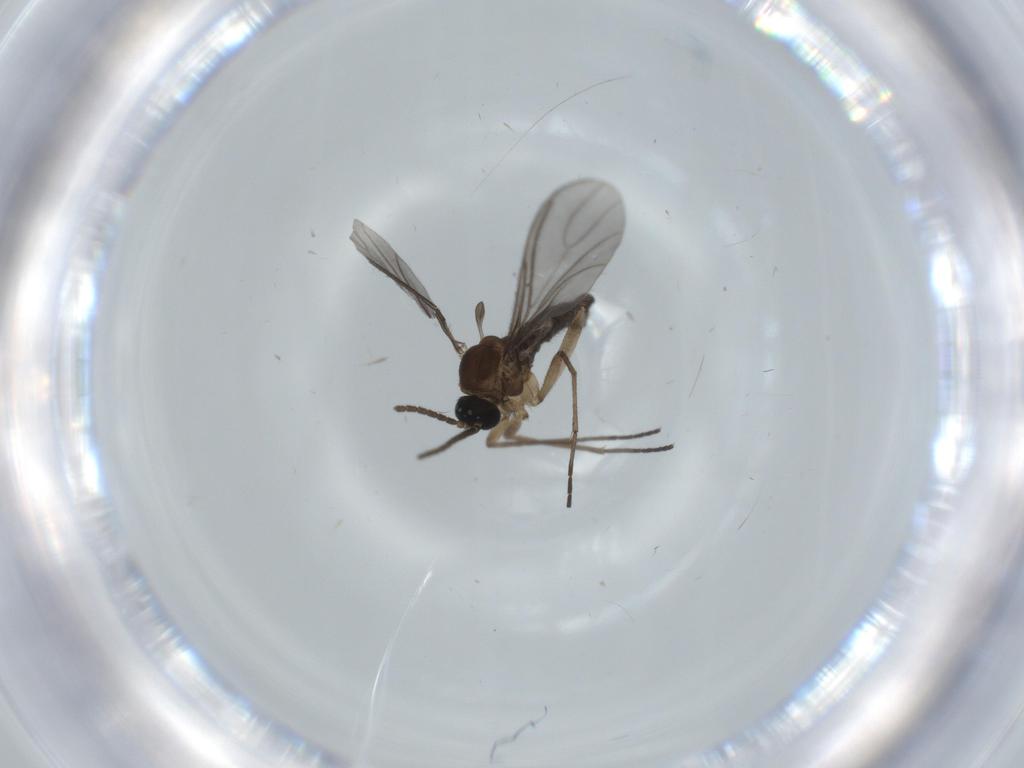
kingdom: Animalia
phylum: Arthropoda
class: Insecta
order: Diptera
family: Sciaridae
